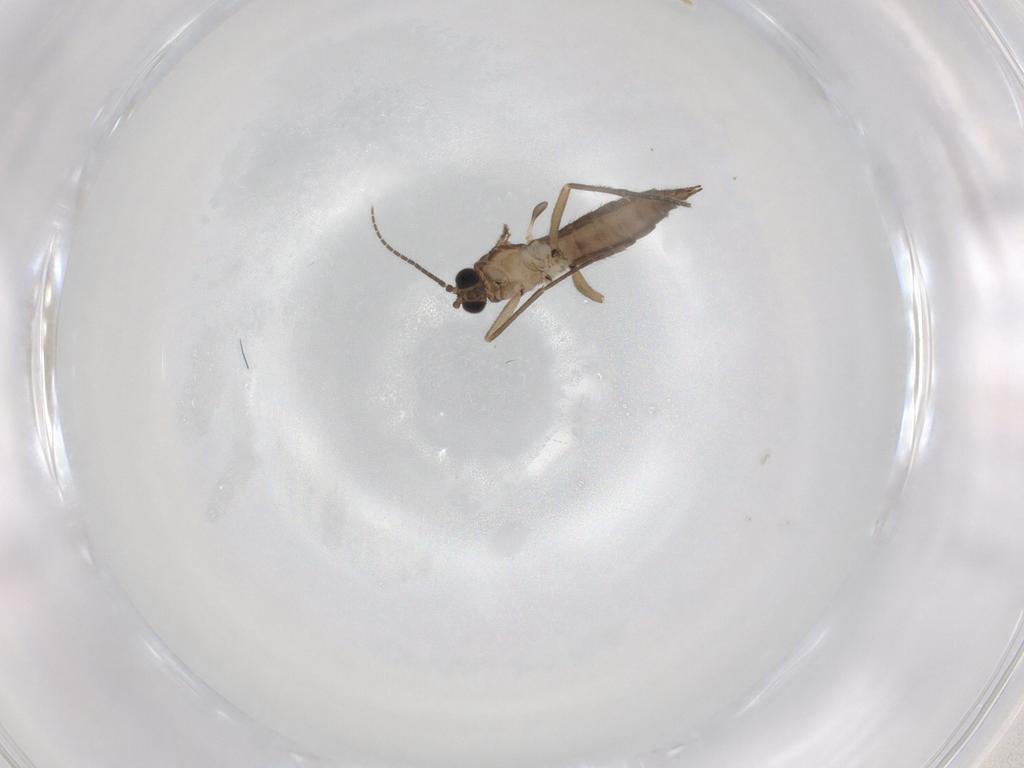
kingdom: Animalia
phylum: Arthropoda
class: Insecta
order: Diptera
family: Sciaridae
